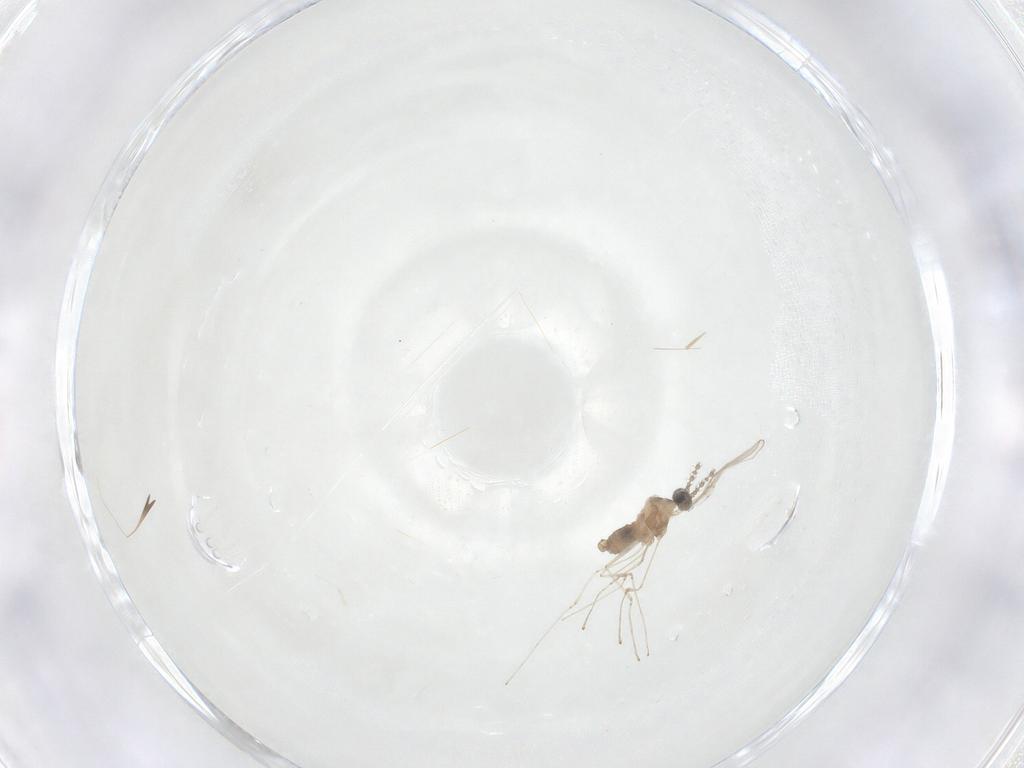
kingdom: Animalia
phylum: Arthropoda
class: Insecta
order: Diptera
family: Cecidomyiidae
